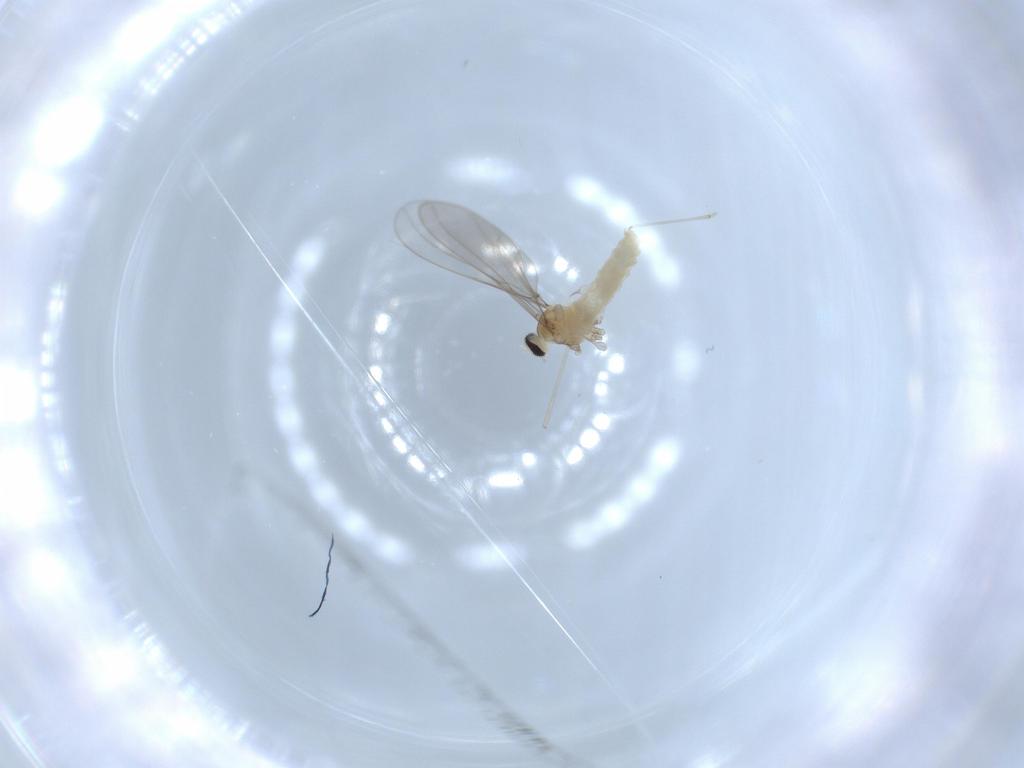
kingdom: Animalia
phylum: Arthropoda
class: Insecta
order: Diptera
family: Cecidomyiidae
